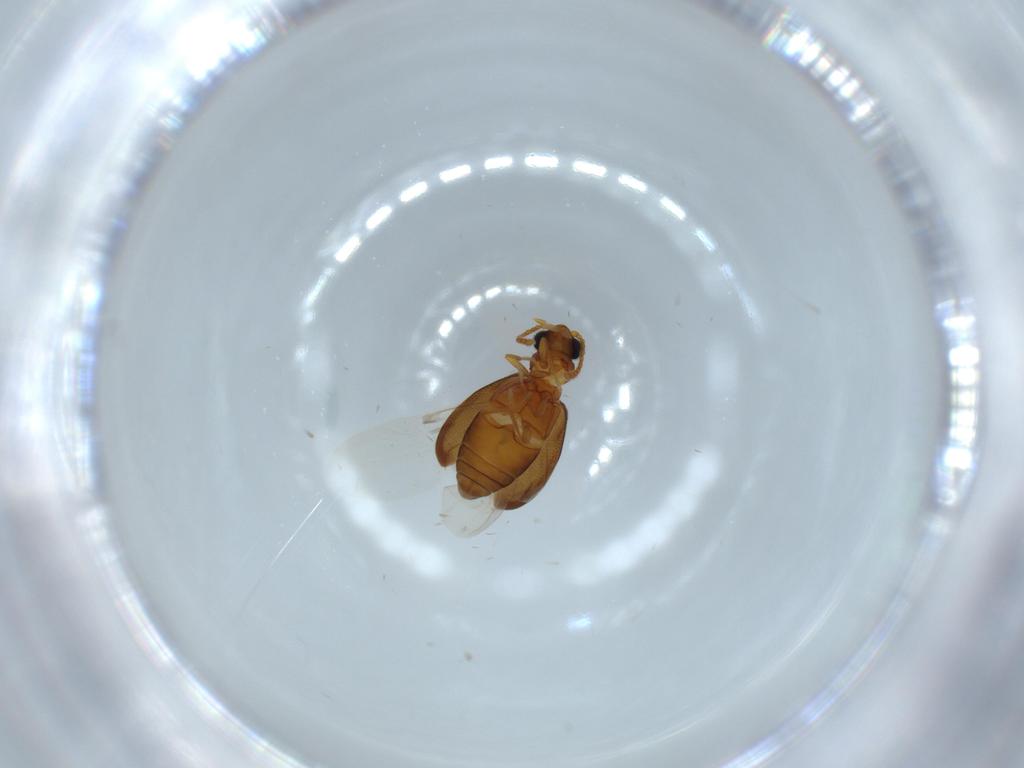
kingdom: Animalia
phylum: Arthropoda
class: Insecta
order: Coleoptera
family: Aderidae
